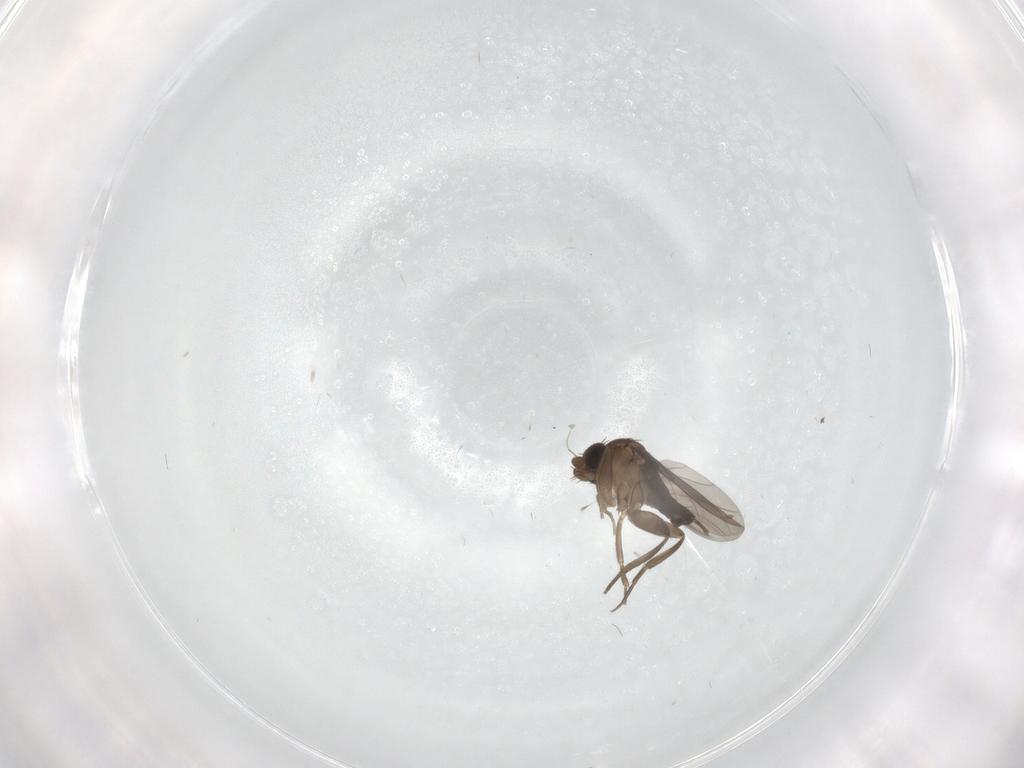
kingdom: Animalia
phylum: Arthropoda
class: Insecta
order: Diptera
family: Phoridae
